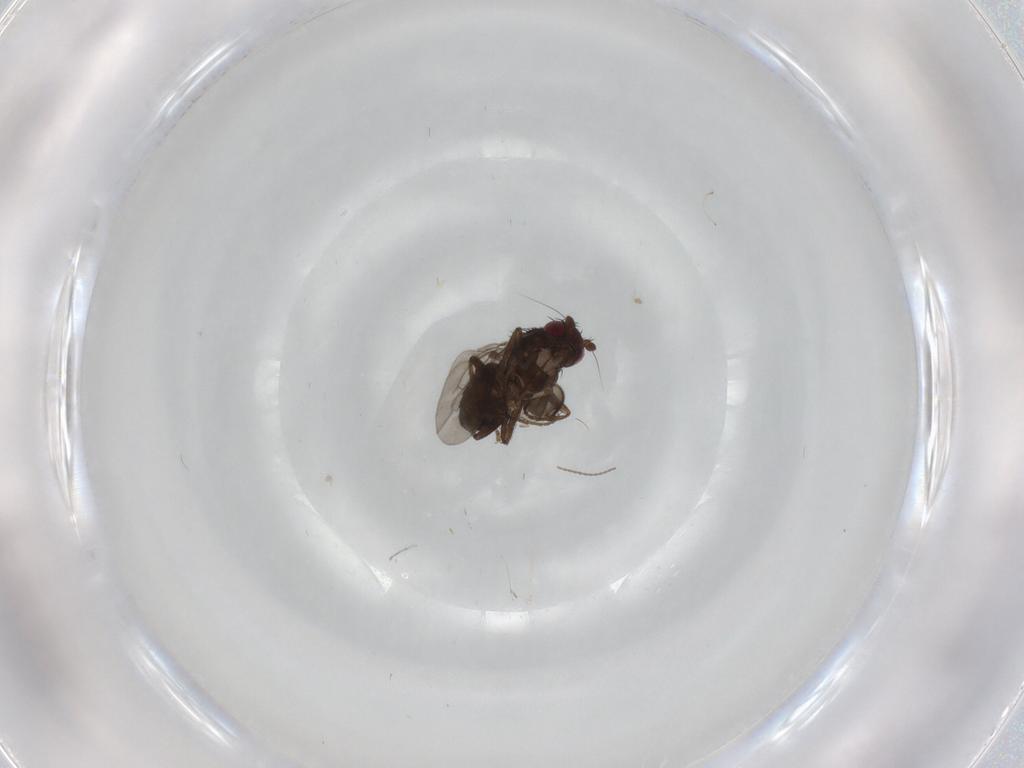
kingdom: Animalia
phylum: Arthropoda
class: Insecta
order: Diptera
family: Sphaeroceridae
